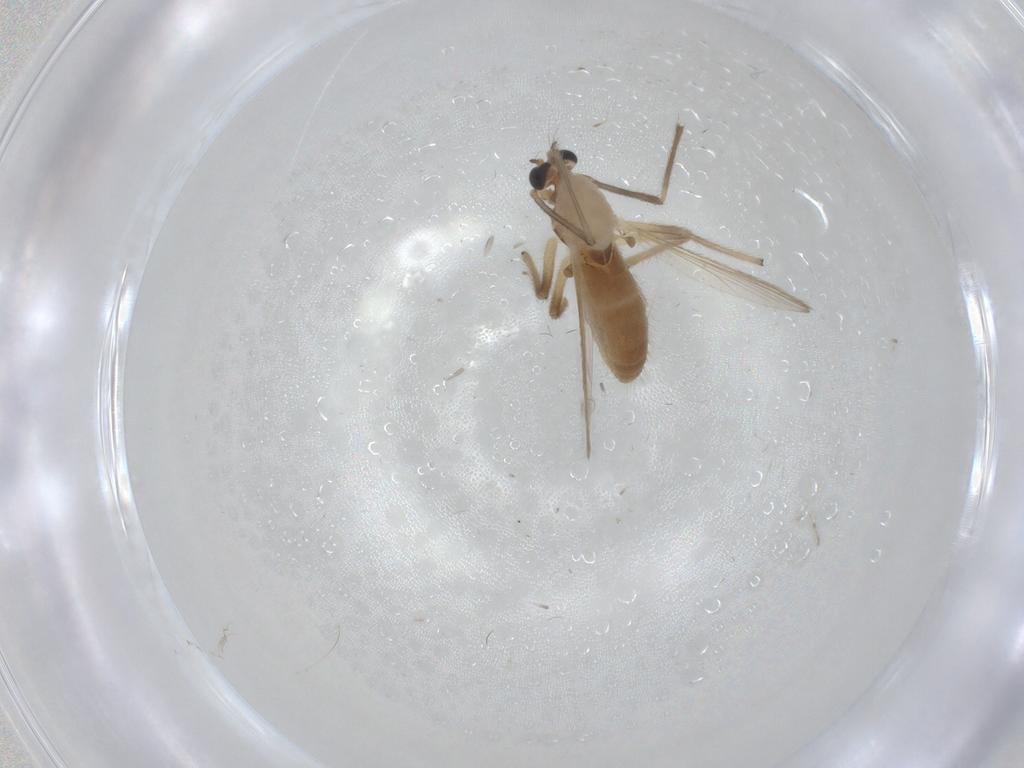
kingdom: Animalia
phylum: Arthropoda
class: Insecta
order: Diptera
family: Chironomidae
